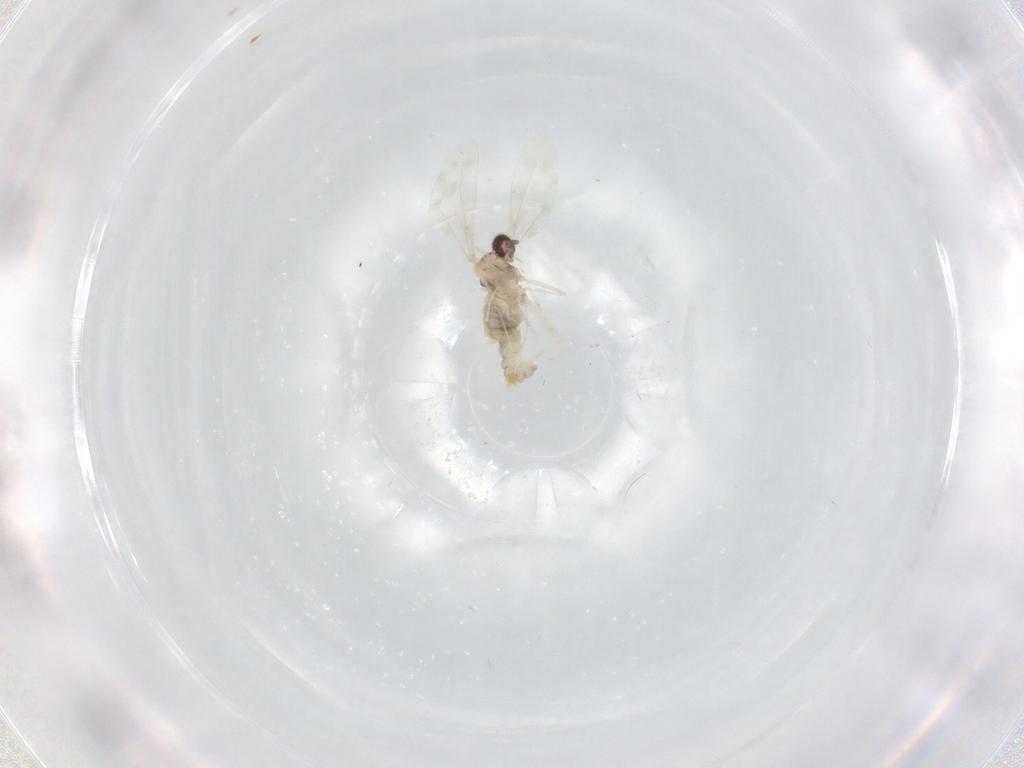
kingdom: Animalia
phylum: Arthropoda
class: Insecta
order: Diptera
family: Cecidomyiidae
